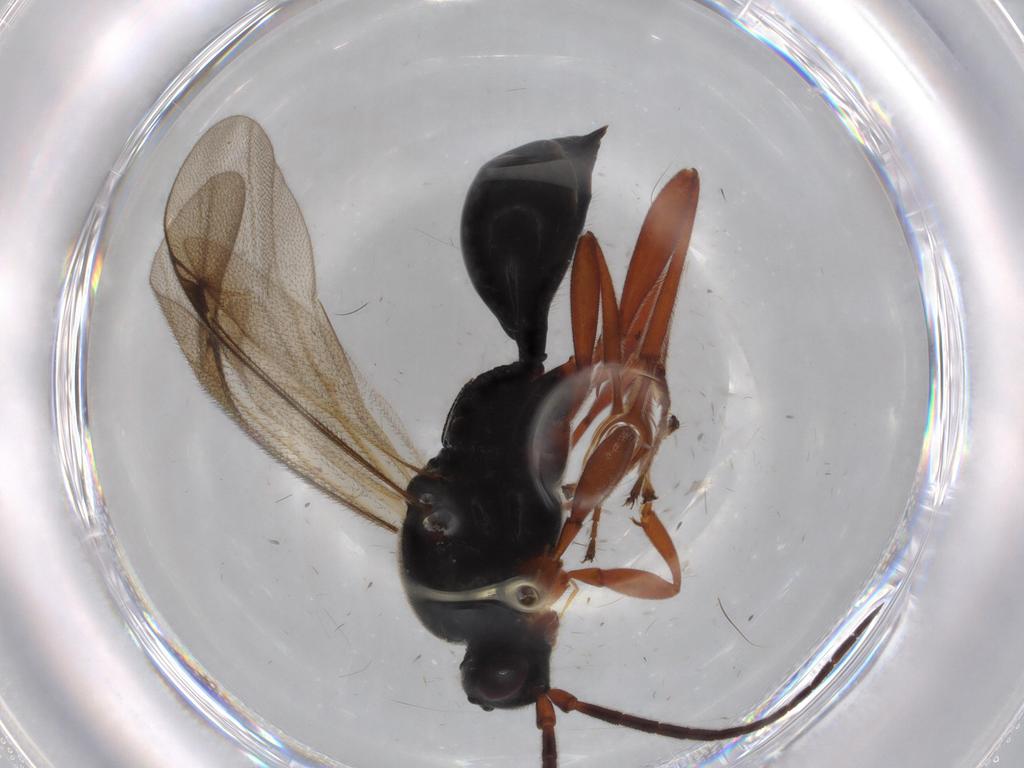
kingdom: Animalia
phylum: Arthropoda
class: Insecta
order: Hymenoptera
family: Proctotrupidae
